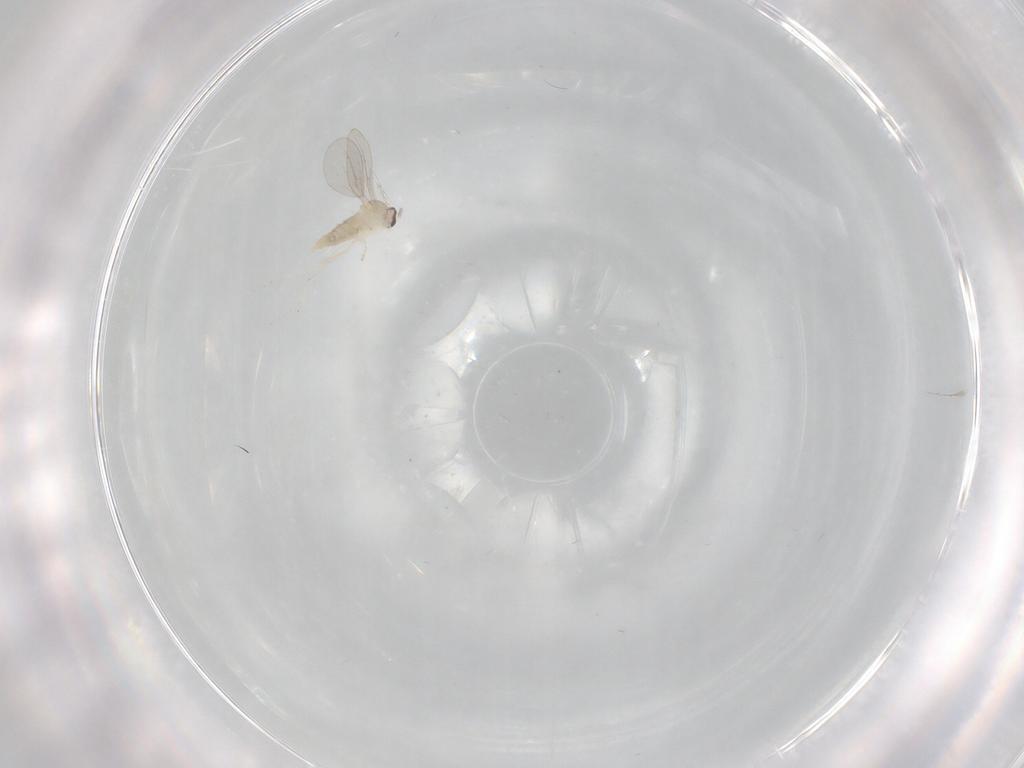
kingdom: Animalia
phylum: Arthropoda
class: Insecta
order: Diptera
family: Cecidomyiidae
